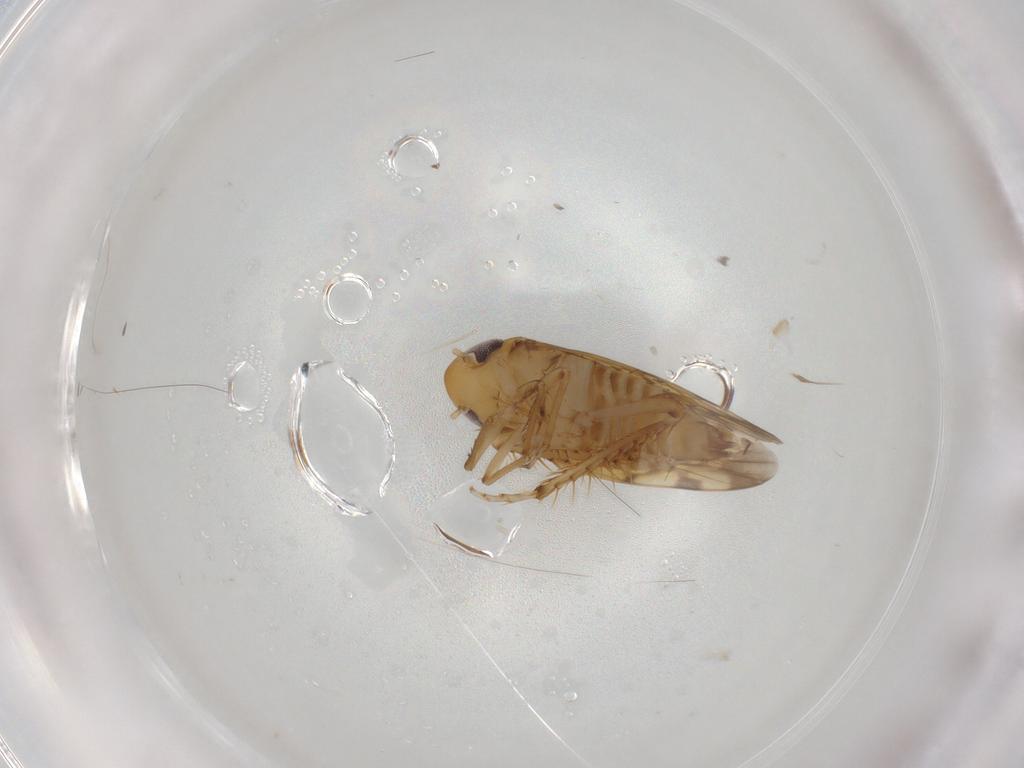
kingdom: Animalia
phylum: Arthropoda
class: Insecta
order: Hemiptera
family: Cicadellidae
